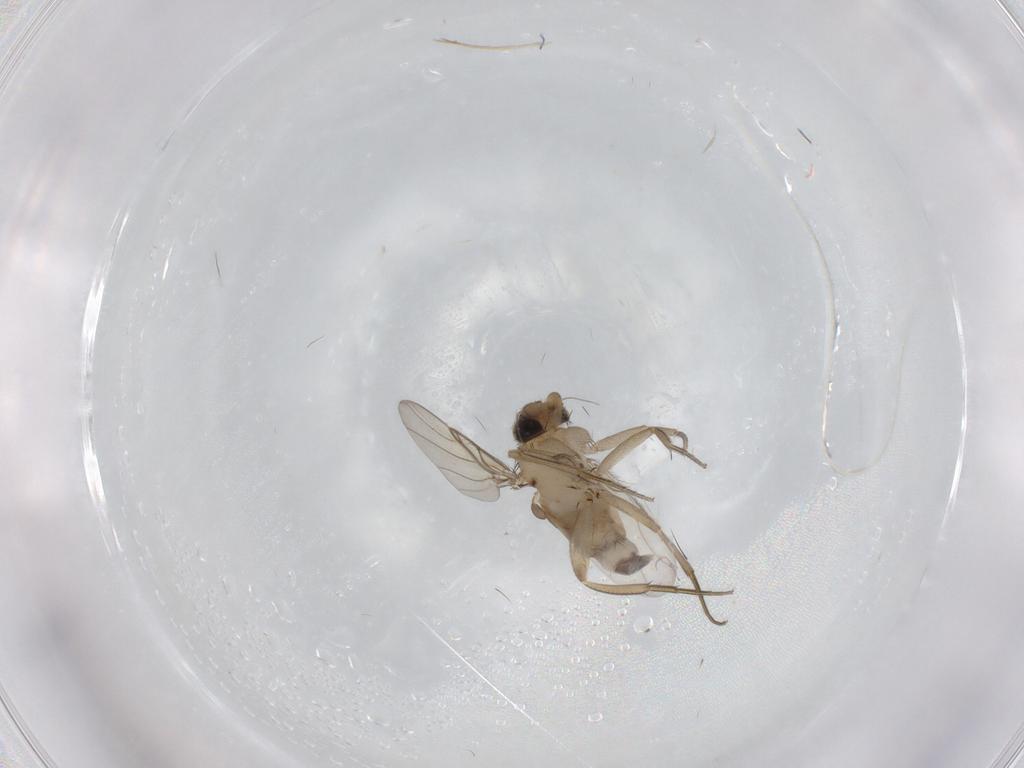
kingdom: Animalia
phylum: Arthropoda
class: Insecta
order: Diptera
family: Phoridae
